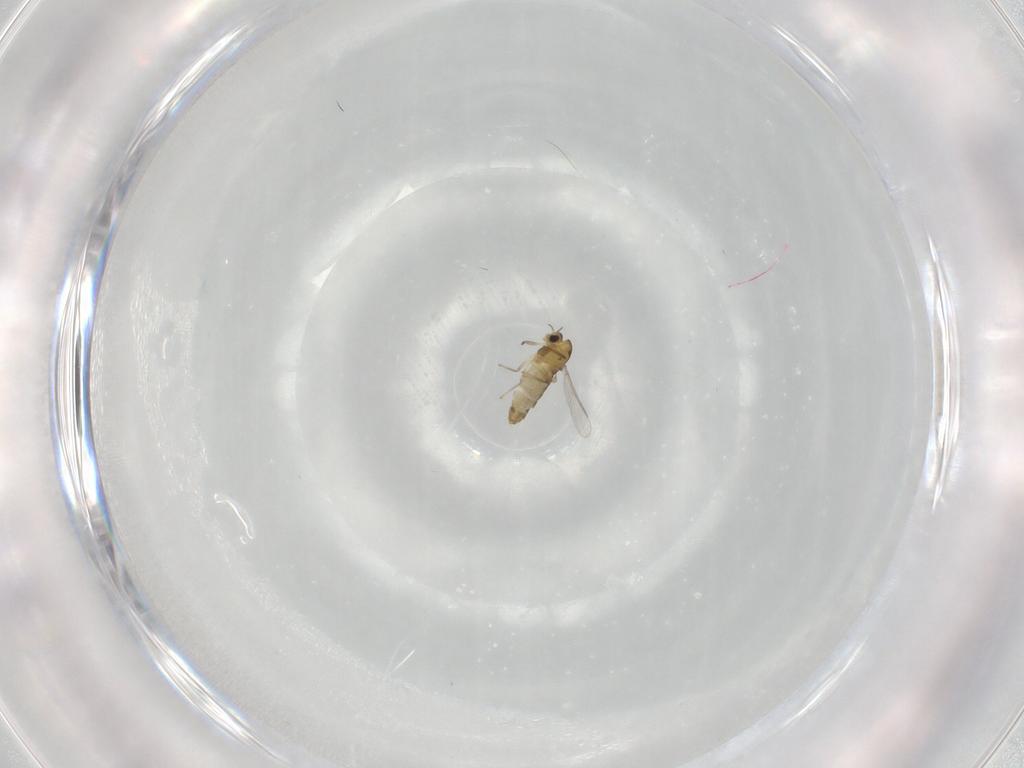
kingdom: Animalia
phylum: Arthropoda
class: Insecta
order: Diptera
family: Chironomidae
